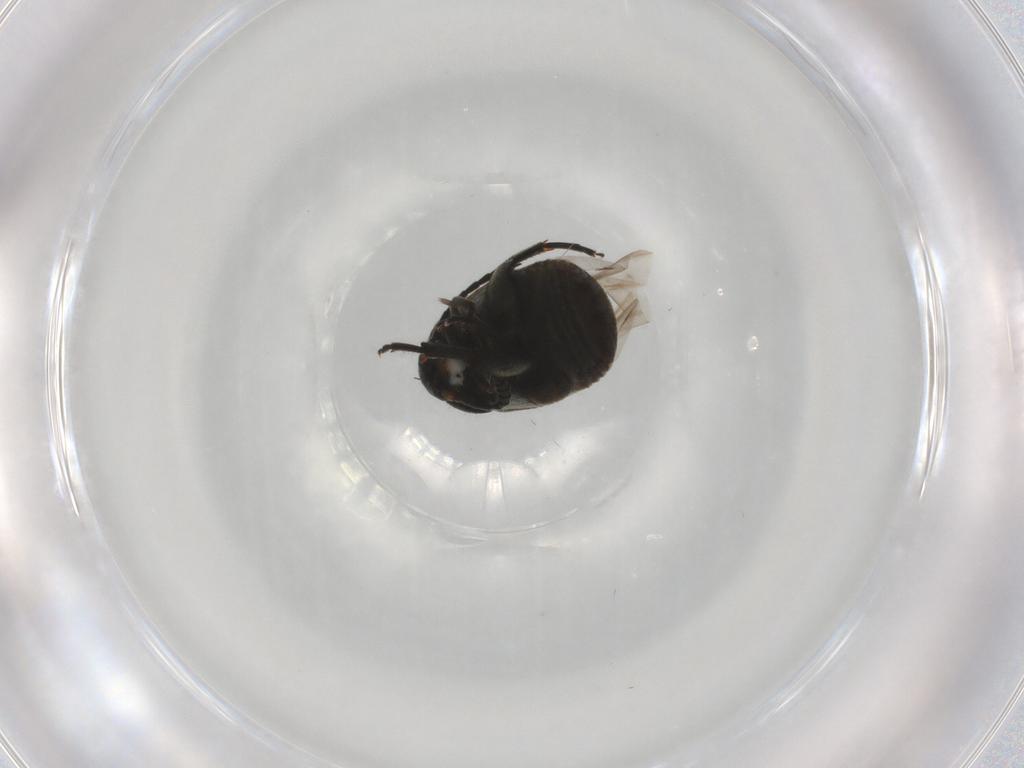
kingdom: Animalia
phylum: Arthropoda
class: Insecta
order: Coleoptera
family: Chrysomelidae
